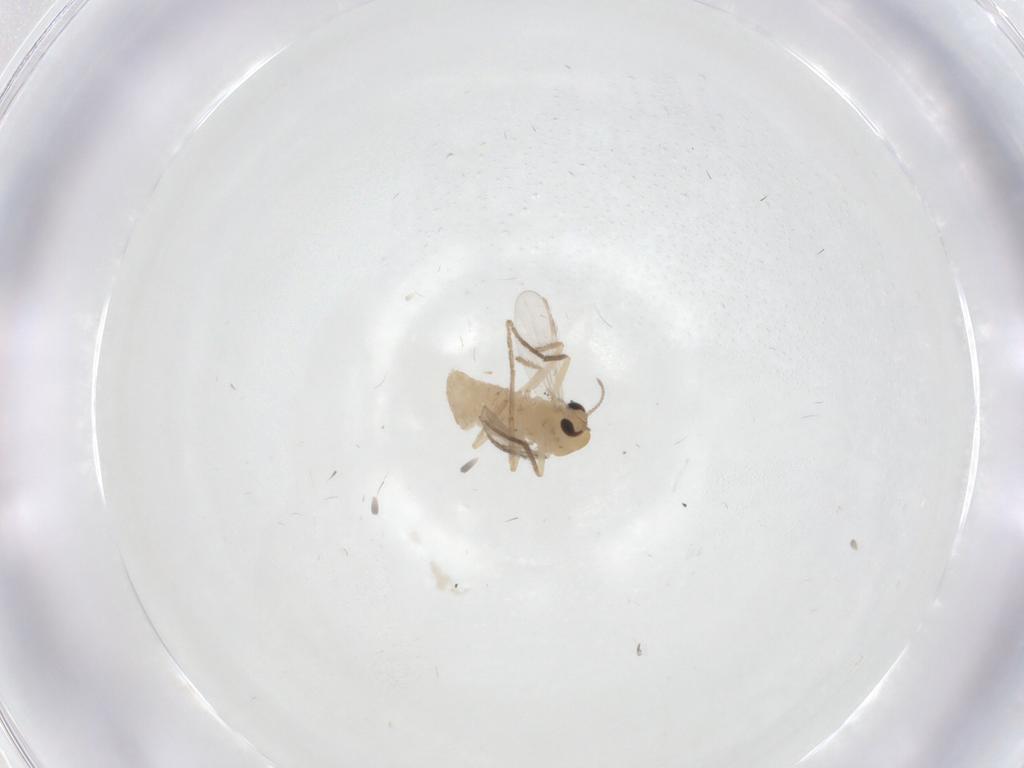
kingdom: Animalia
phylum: Arthropoda
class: Insecta
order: Diptera
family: Chironomidae
